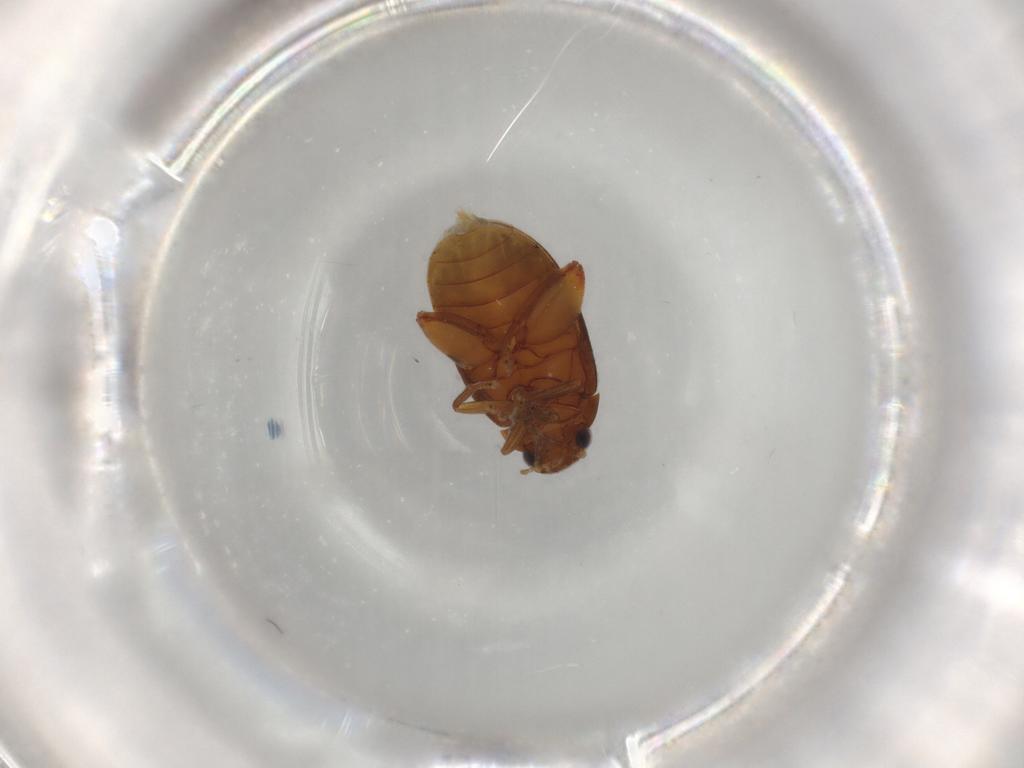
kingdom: Animalia
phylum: Arthropoda
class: Insecta
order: Coleoptera
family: Scirtidae
